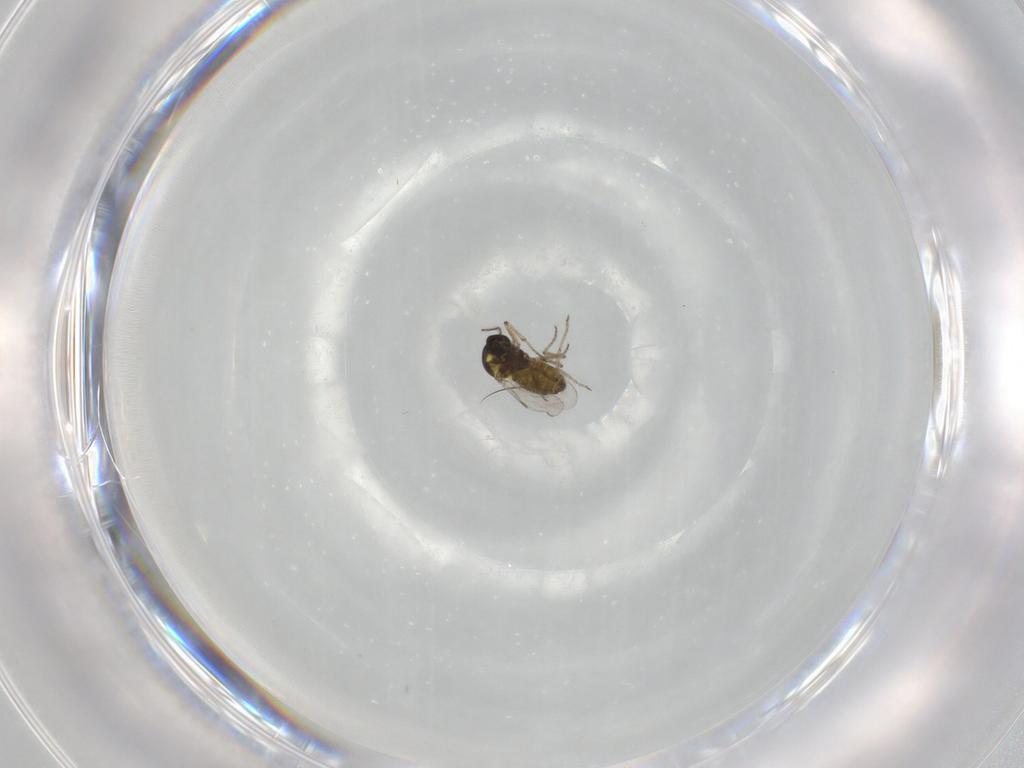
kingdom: Animalia
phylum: Arthropoda
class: Insecta
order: Diptera
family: Ceratopogonidae
